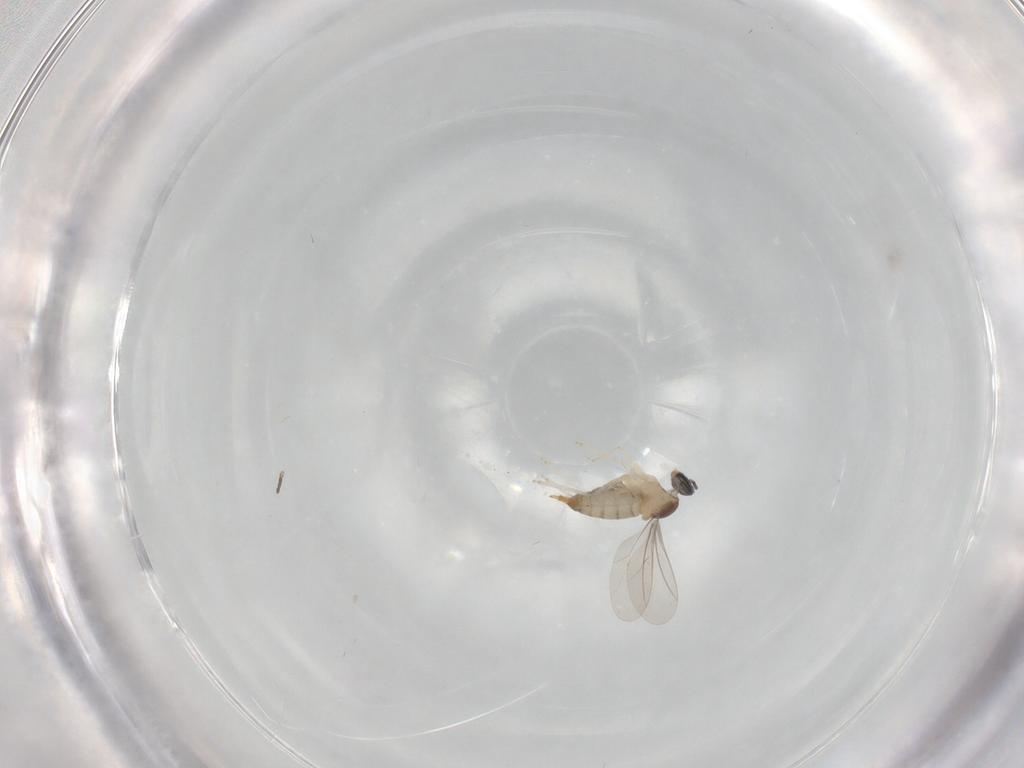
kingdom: Animalia
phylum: Arthropoda
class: Insecta
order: Diptera
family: Cecidomyiidae
